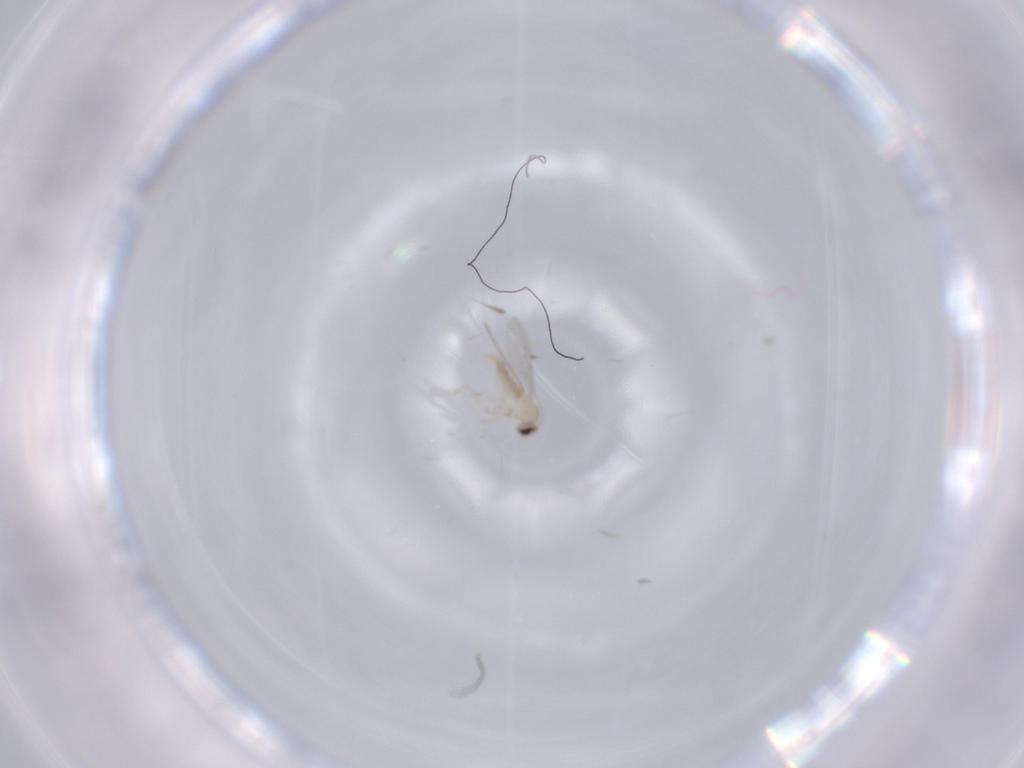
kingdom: Animalia
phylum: Arthropoda
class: Insecta
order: Diptera
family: Cecidomyiidae
